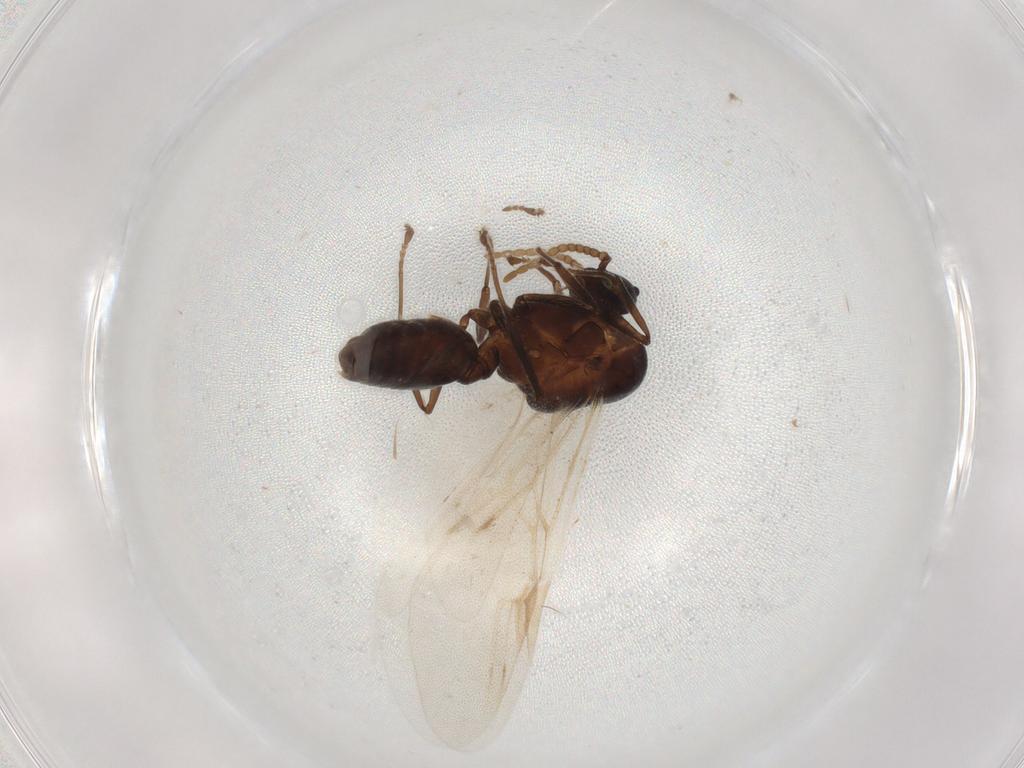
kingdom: Animalia
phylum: Arthropoda
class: Insecta
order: Hymenoptera
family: Formicidae
